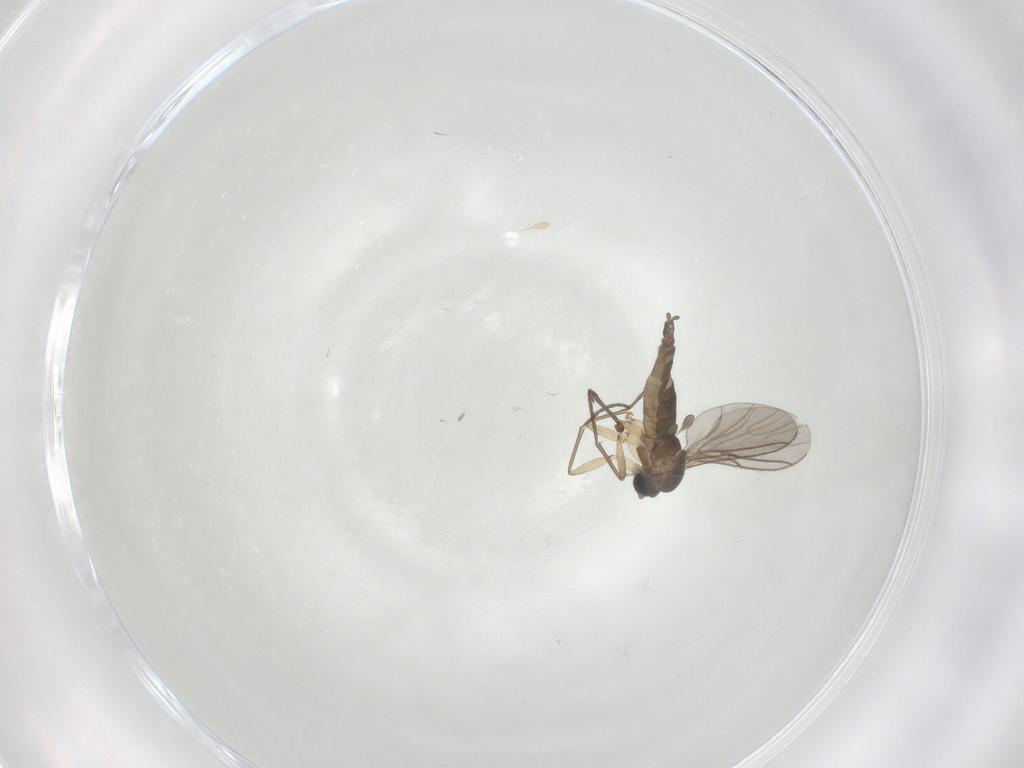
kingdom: Animalia
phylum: Arthropoda
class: Insecta
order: Diptera
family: Sciaridae
